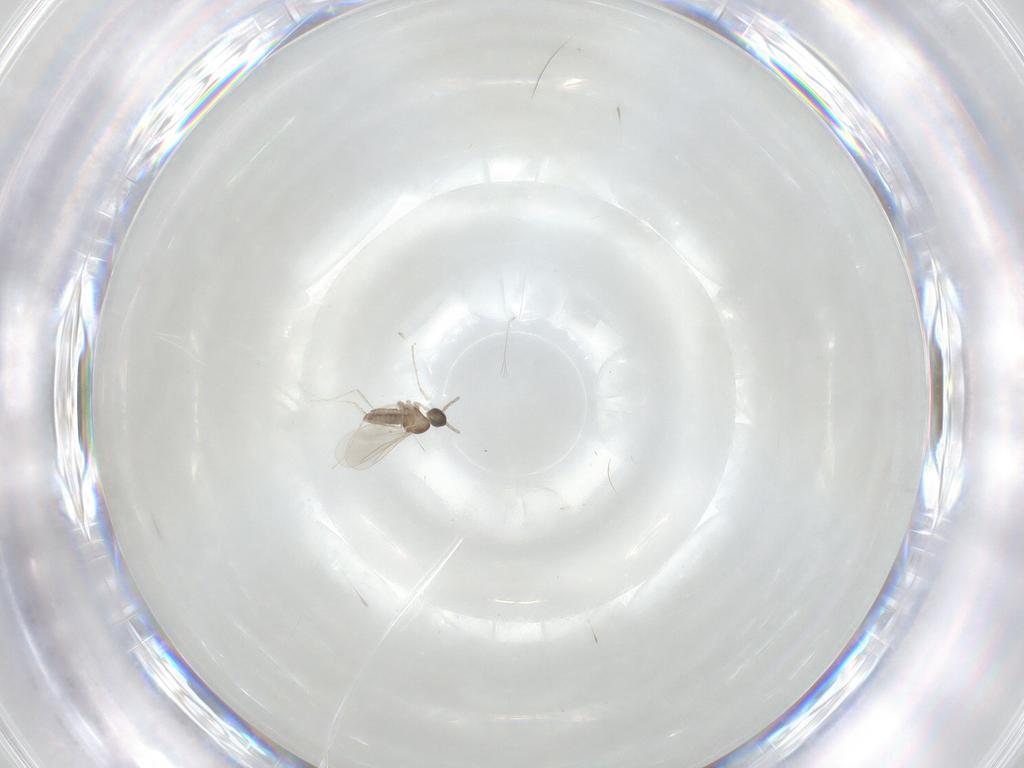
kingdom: Animalia
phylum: Arthropoda
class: Insecta
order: Diptera
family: Cecidomyiidae
